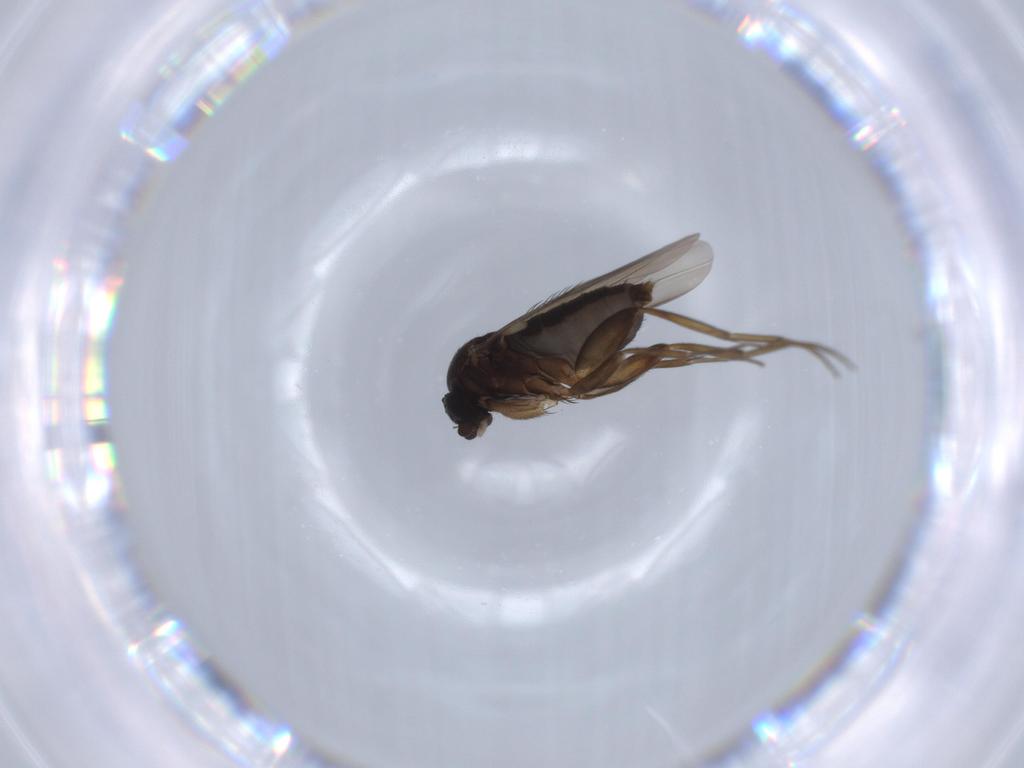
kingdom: Animalia
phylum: Arthropoda
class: Insecta
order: Diptera
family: Phoridae
